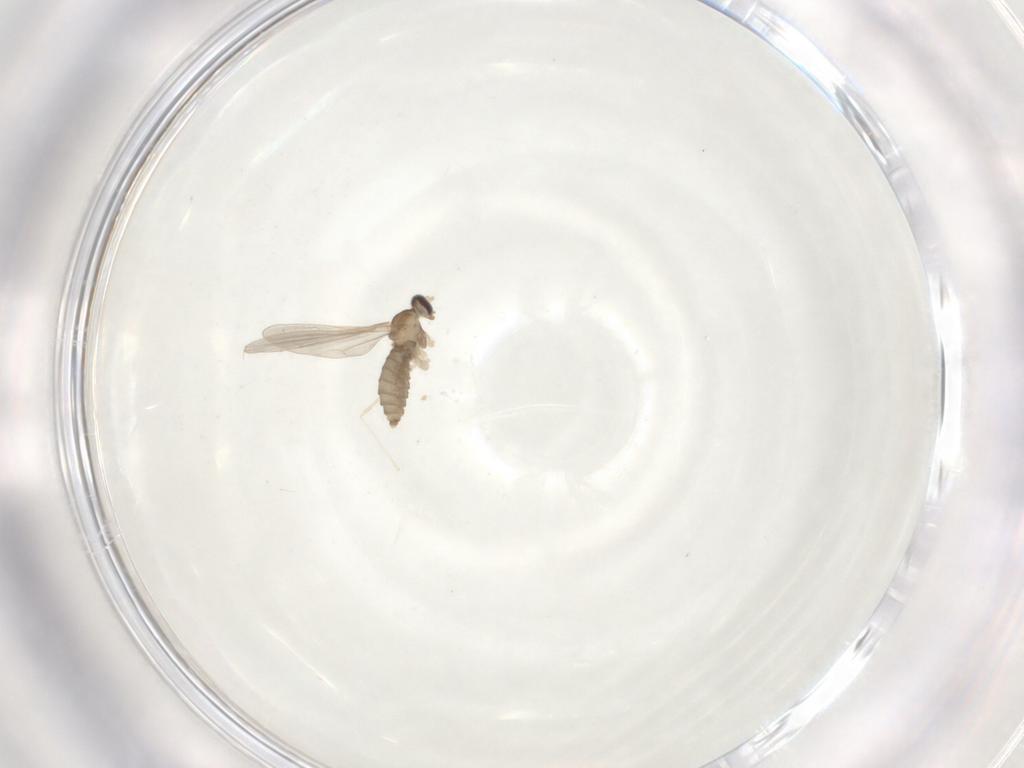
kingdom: Animalia
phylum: Arthropoda
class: Insecta
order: Diptera
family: Cecidomyiidae
